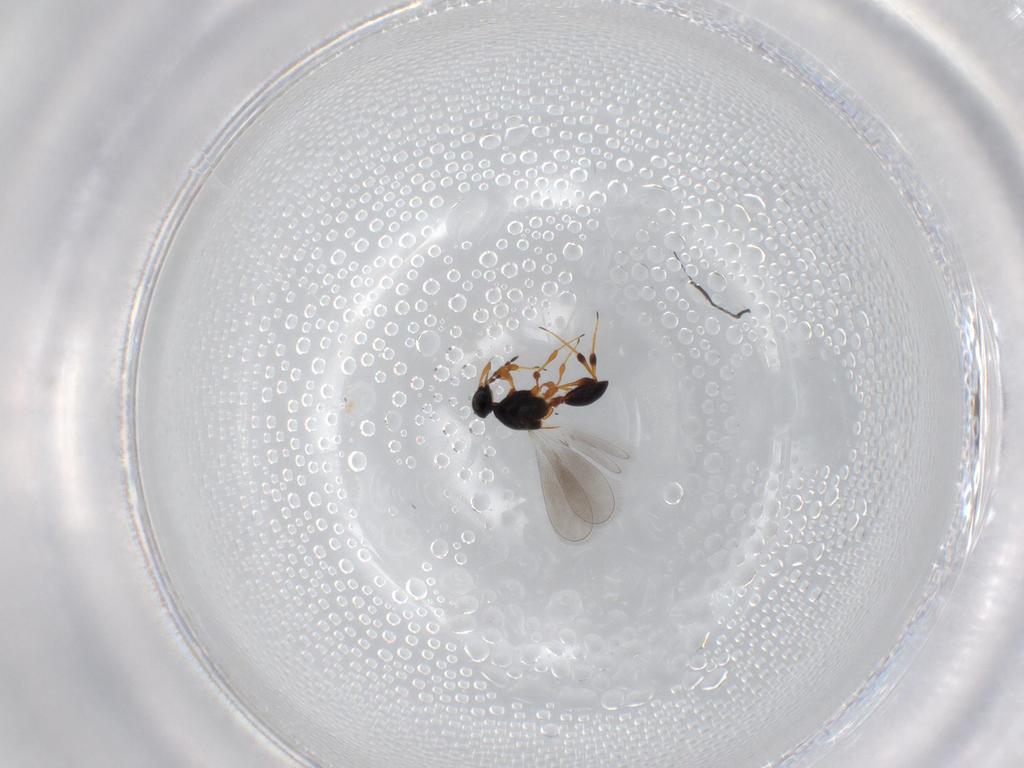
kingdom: Animalia
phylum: Arthropoda
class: Insecta
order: Hymenoptera
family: Platygastridae
